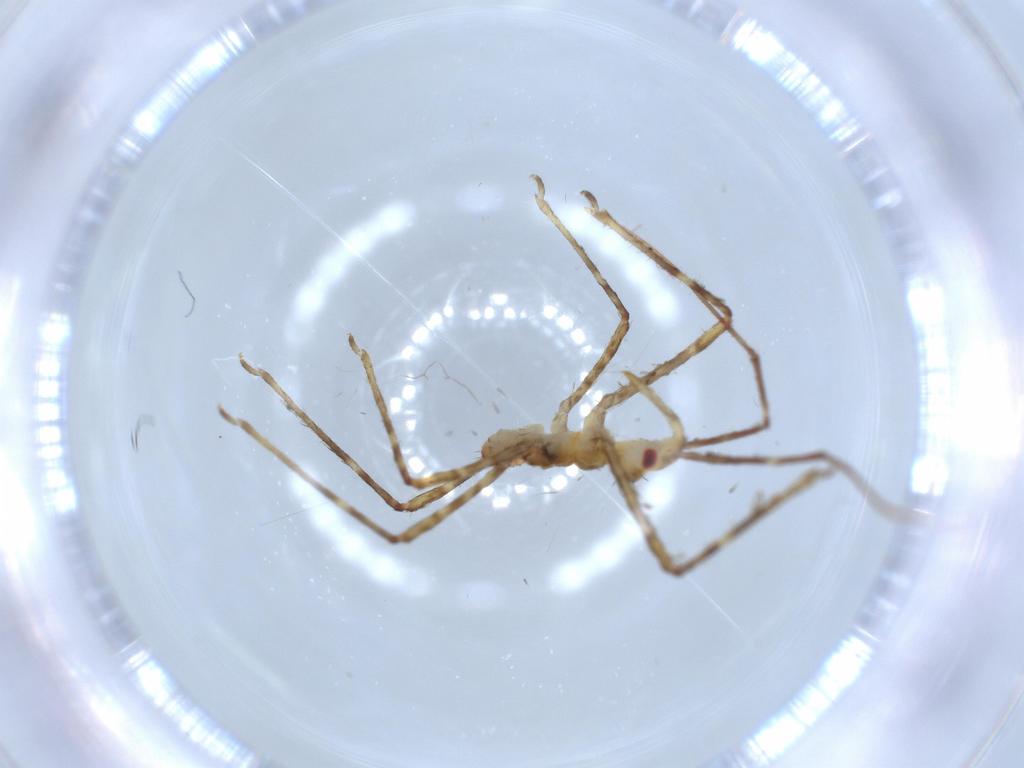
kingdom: Animalia
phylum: Arthropoda
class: Insecta
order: Hemiptera
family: Reduviidae
